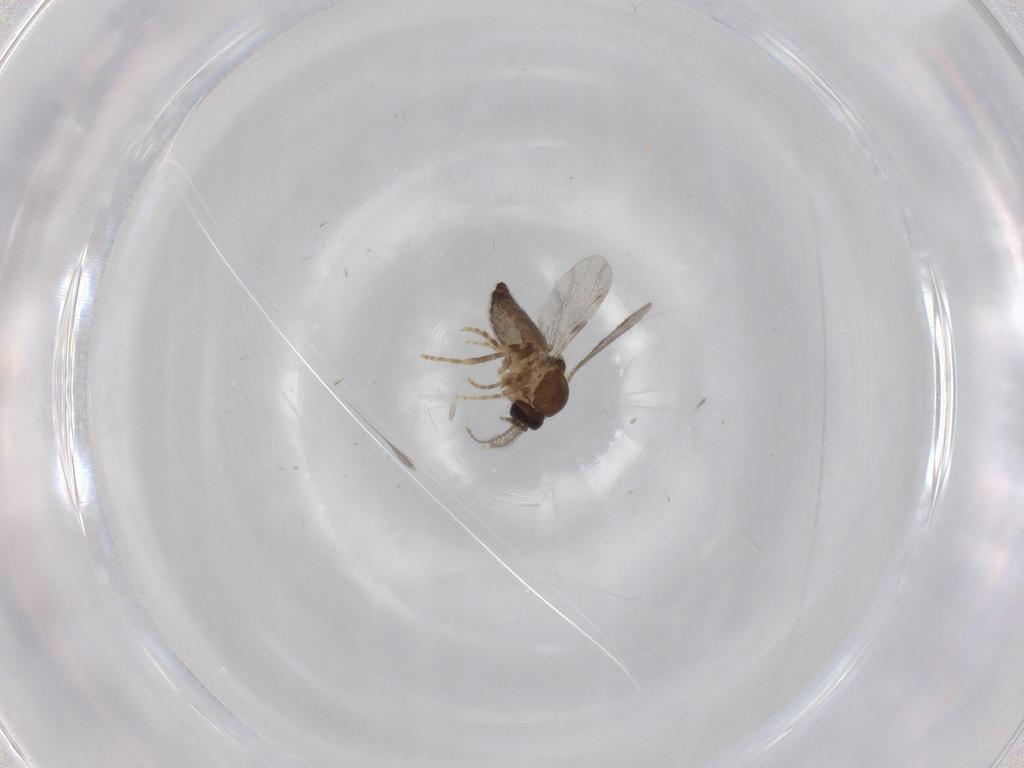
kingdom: Animalia
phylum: Arthropoda
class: Insecta
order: Diptera
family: Ceratopogonidae
